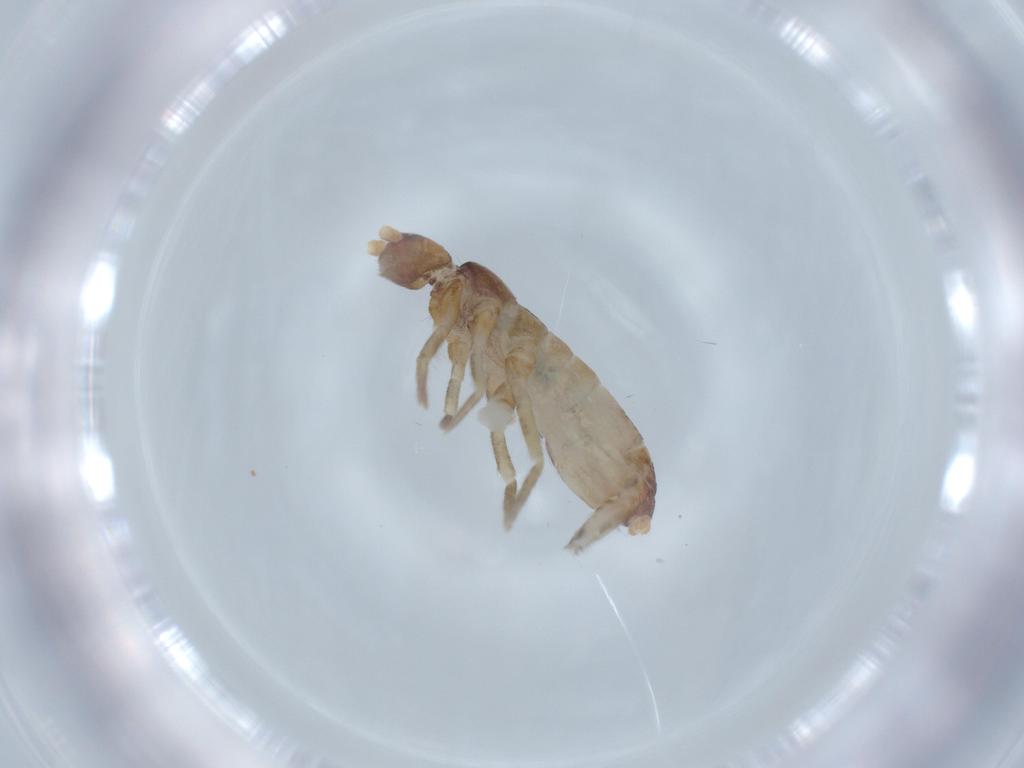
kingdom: Animalia
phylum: Arthropoda
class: Collembola
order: Entomobryomorpha
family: Tomoceridae
